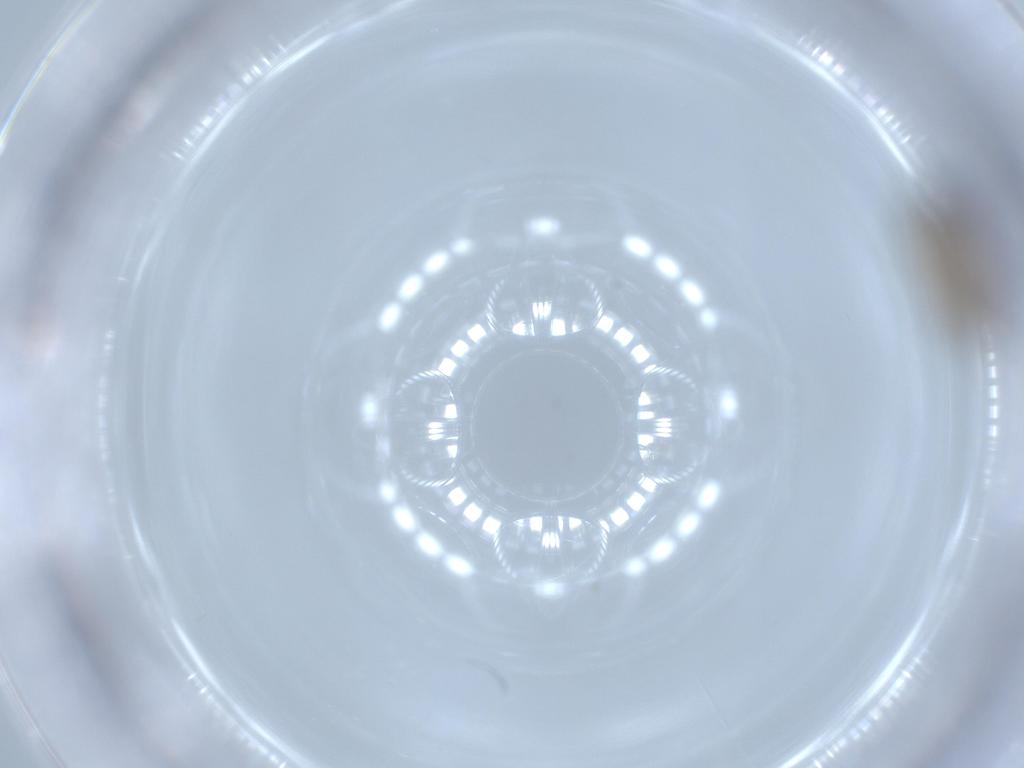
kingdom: Animalia
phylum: Arthropoda
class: Insecta
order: Diptera
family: Ceratopogonidae
